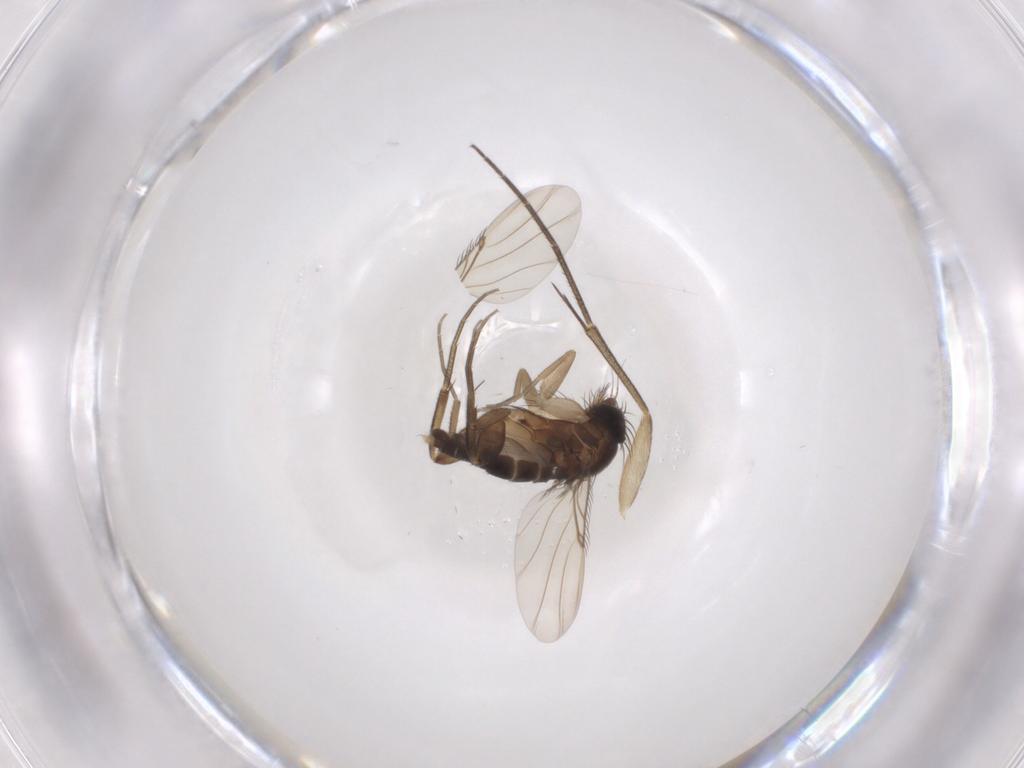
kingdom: Animalia
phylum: Arthropoda
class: Insecta
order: Diptera
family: Phoridae
